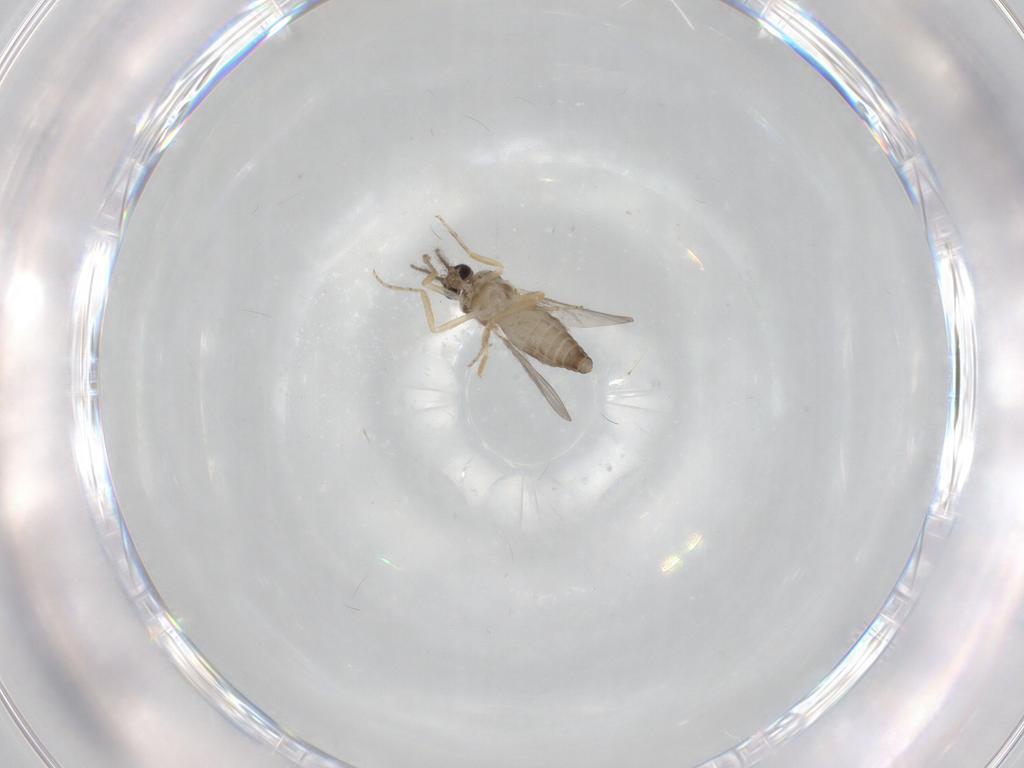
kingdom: Animalia
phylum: Arthropoda
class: Insecta
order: Diptera
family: Ceratopogonidae
